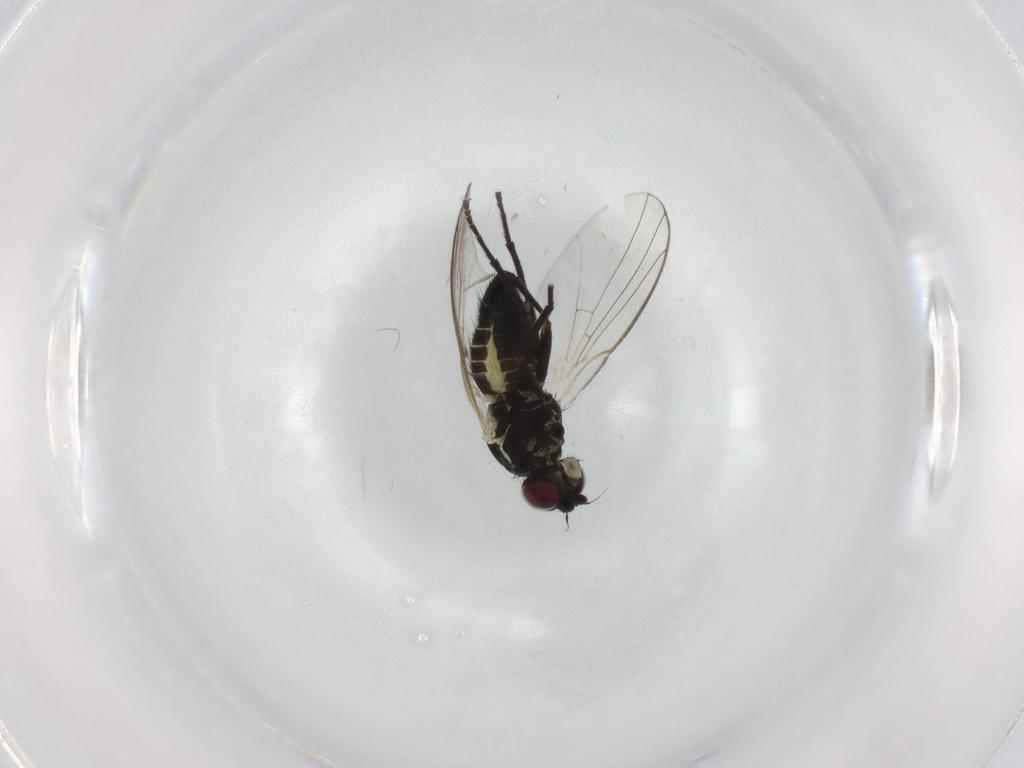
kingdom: Animalia
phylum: Arthropoda
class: Insecta
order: Diptera
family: Agromyzidae
